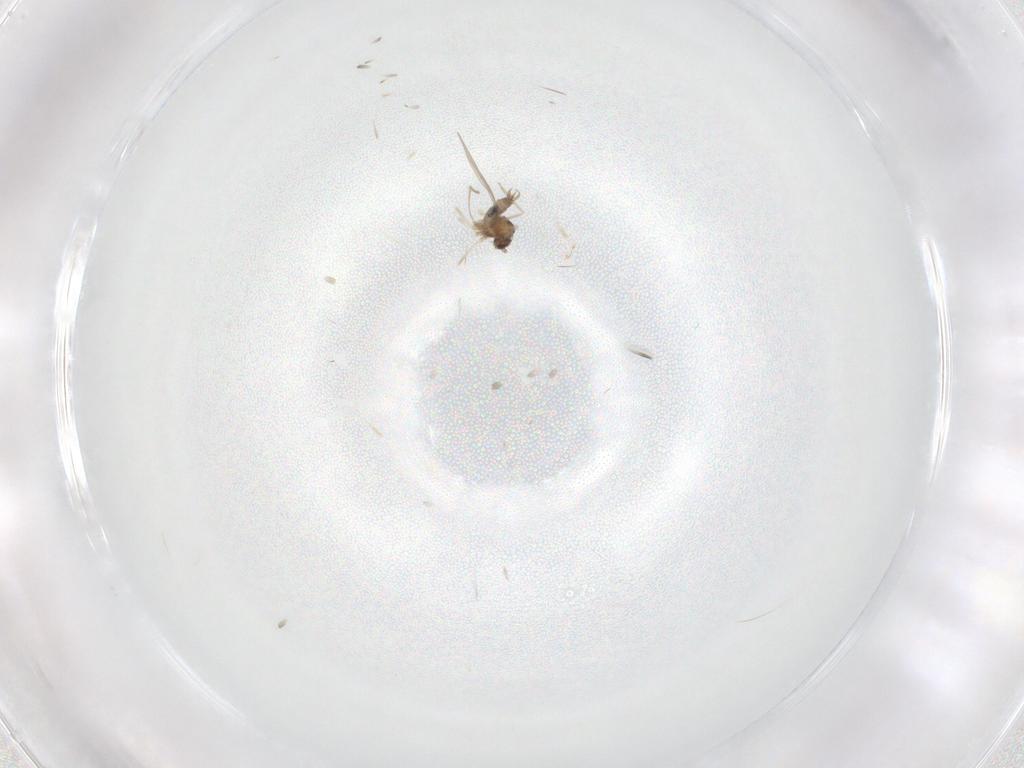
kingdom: Animalia
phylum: Arthropoda
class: Insecta
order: Diptera
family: Cecidomyiidae
